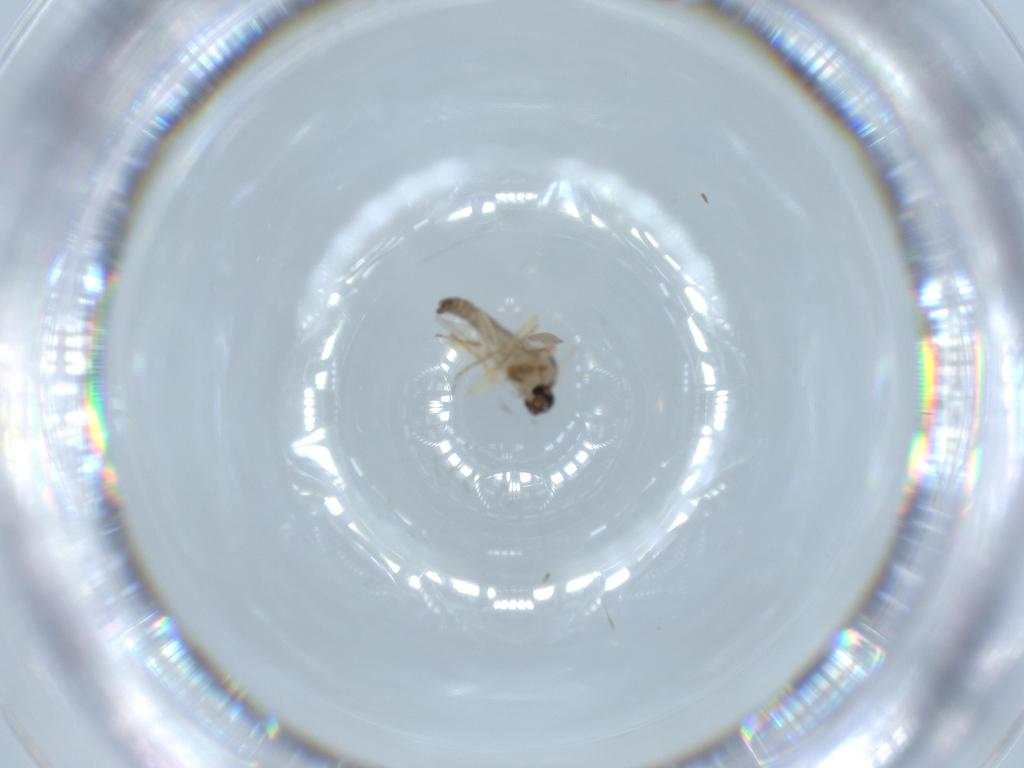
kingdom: Animalia
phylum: Arthropoda
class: Insecta
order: Diptera
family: Ceratopogonidae
